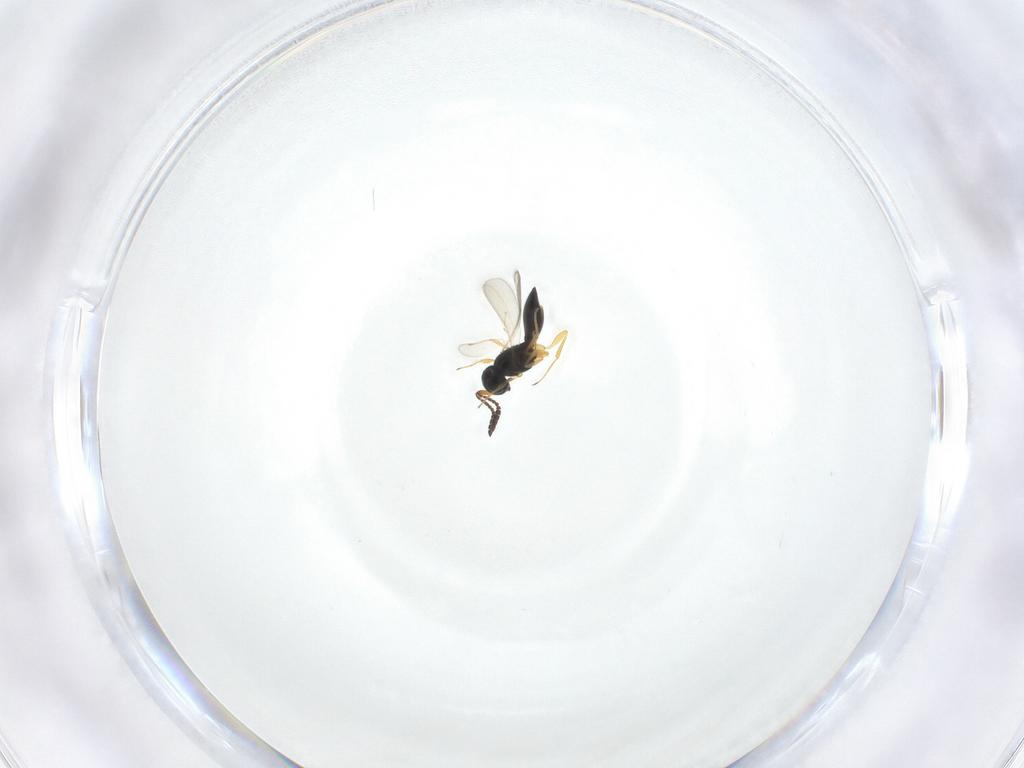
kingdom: Animalia
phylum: Arthropoda
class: Insecta
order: Hymenoptera
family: Scelionidae
